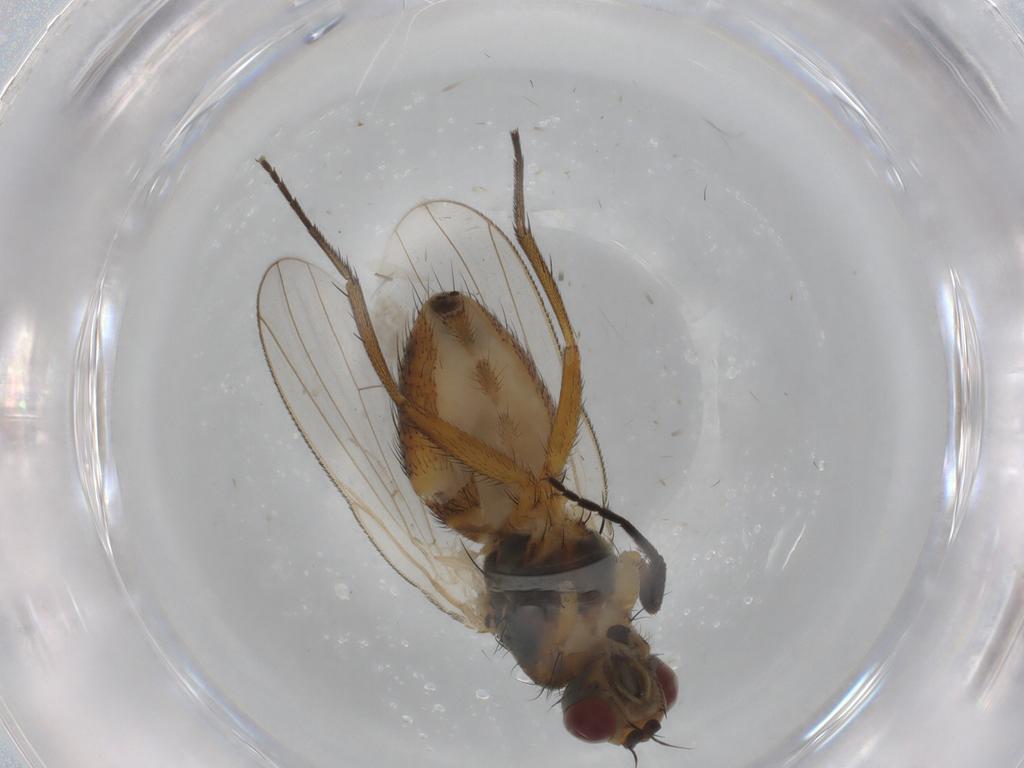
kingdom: Animalia
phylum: Arthropoda
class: Insecta
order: Diptera
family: Muscidae
